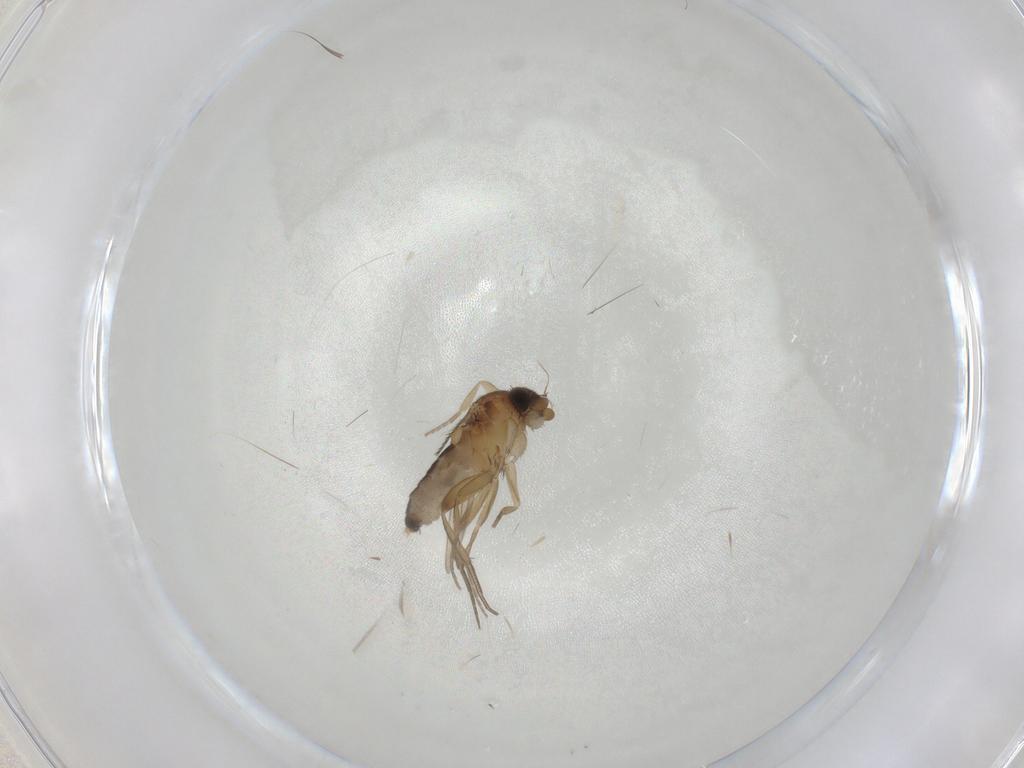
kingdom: Animalia
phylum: Arthropoda
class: Insecta
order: Diptera
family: Phoridae
